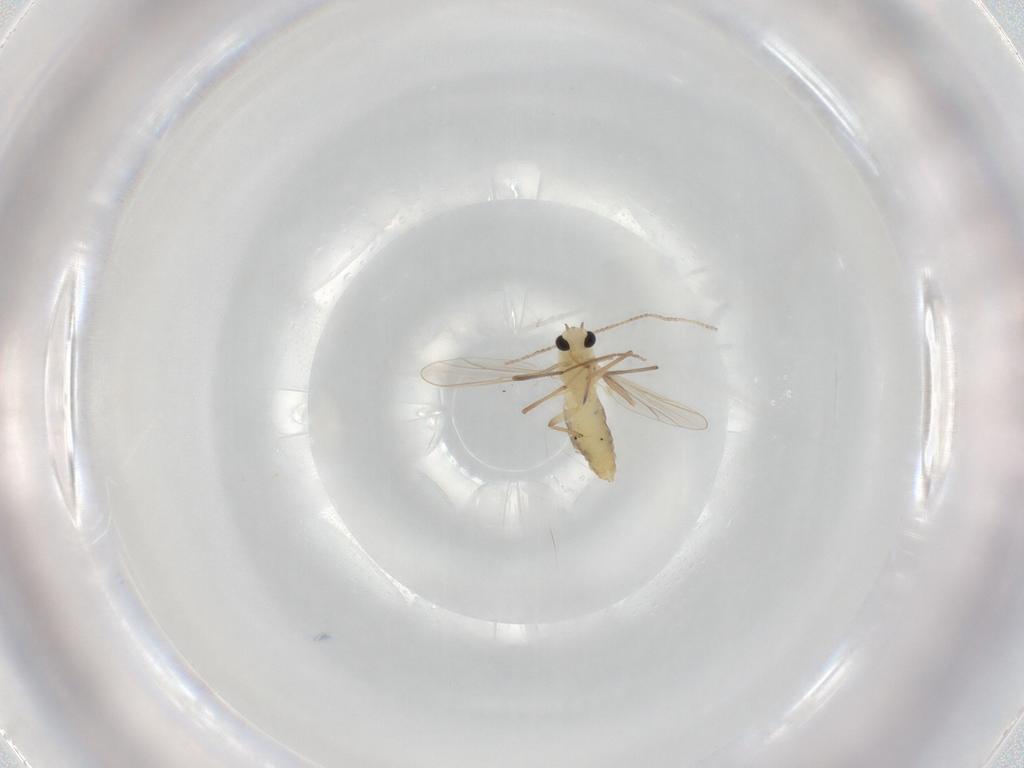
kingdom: Animalia
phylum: Arthropoda
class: Insecta
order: Diptera
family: Chironomidae
